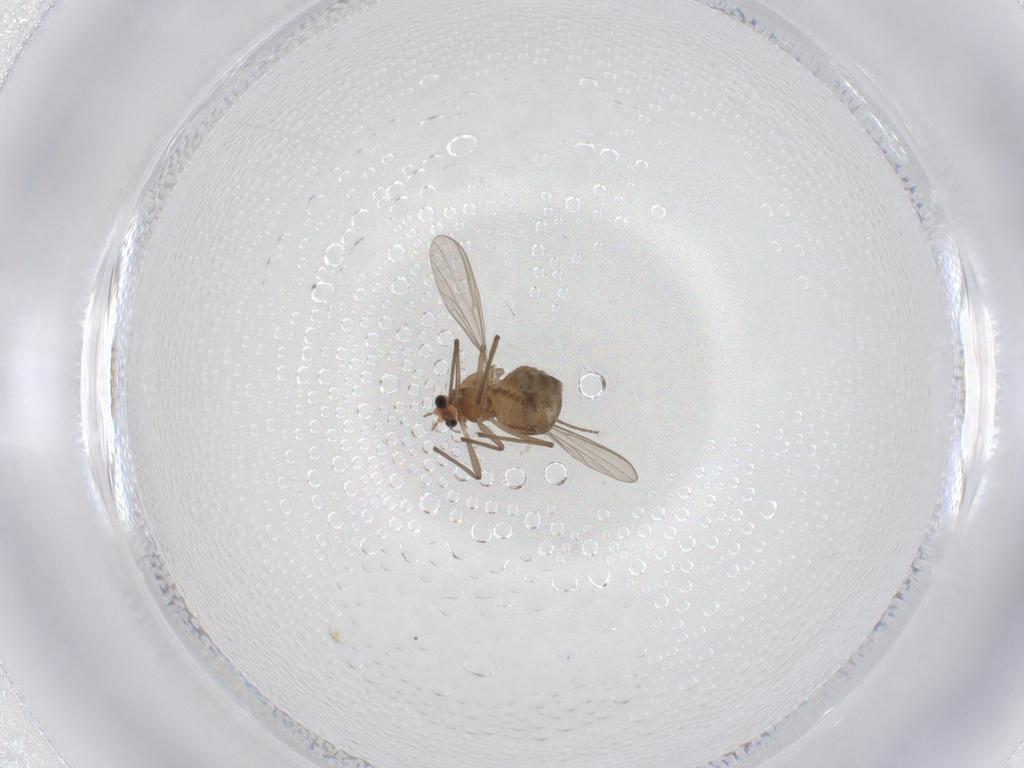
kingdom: Animalia
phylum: Arthropoda
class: Insecta
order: Diptera
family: Chironomidae
